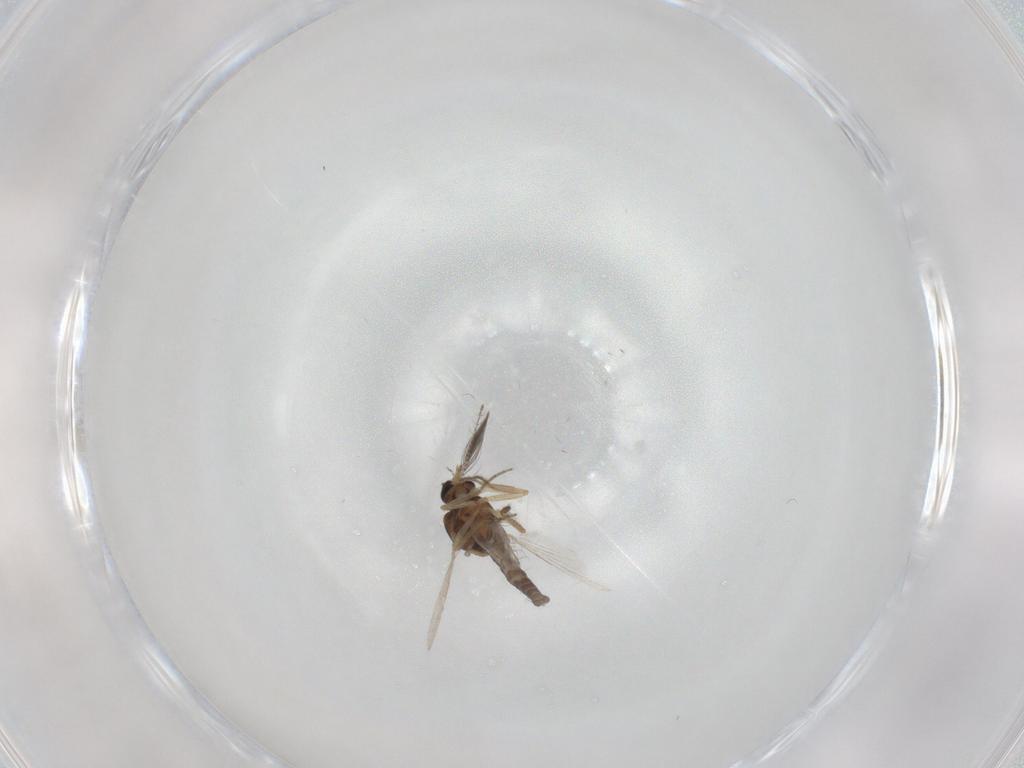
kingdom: Animalia
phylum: Arthropoda
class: Insecta
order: Diptera
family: Ceratopogonidae
